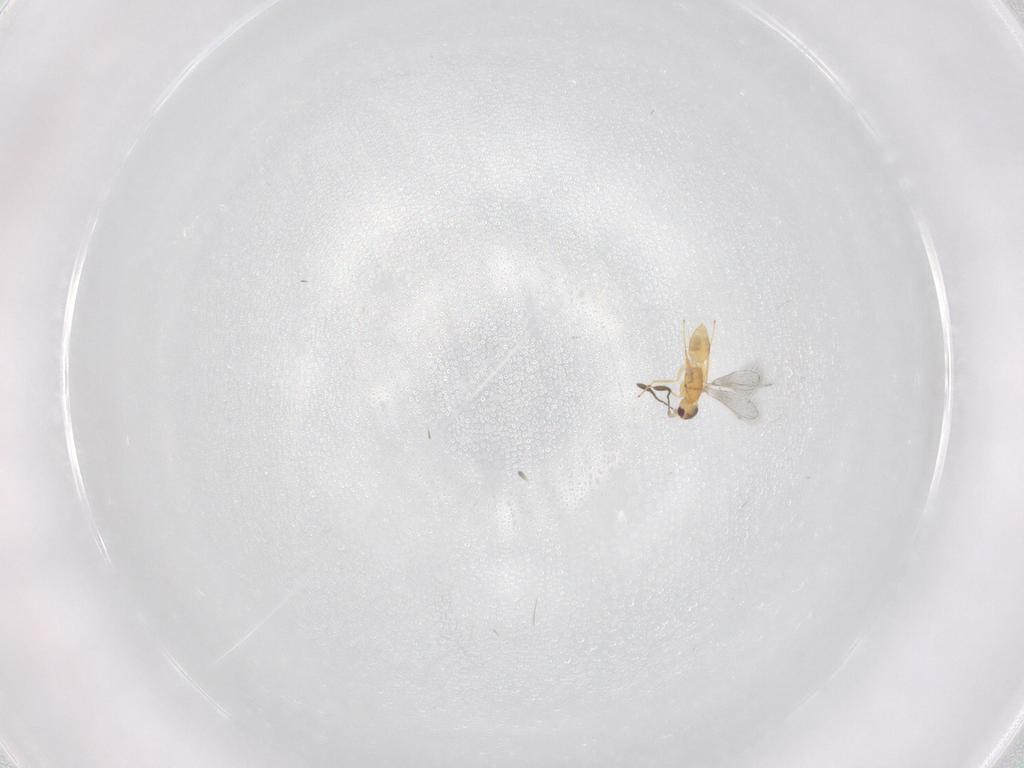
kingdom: Animalia
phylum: Arthropoda
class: Insecta
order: Hymenoptera
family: Mymaridae
